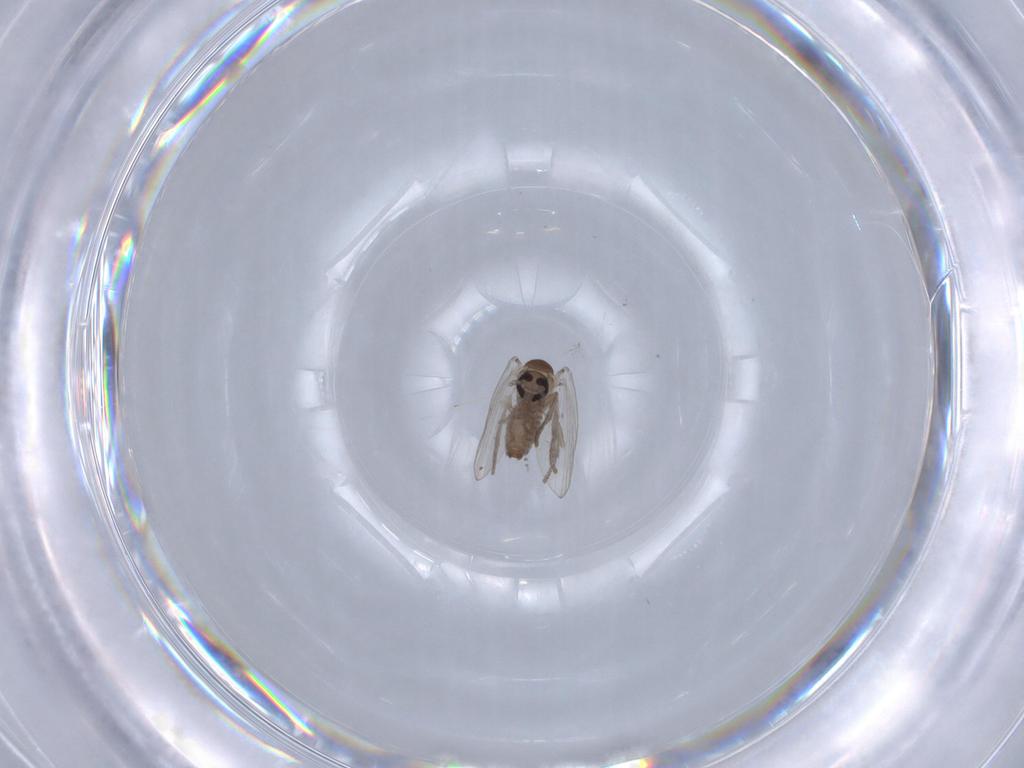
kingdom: Animalia
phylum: Arthropoda
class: Insecta
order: Diptera
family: Psychodidae
